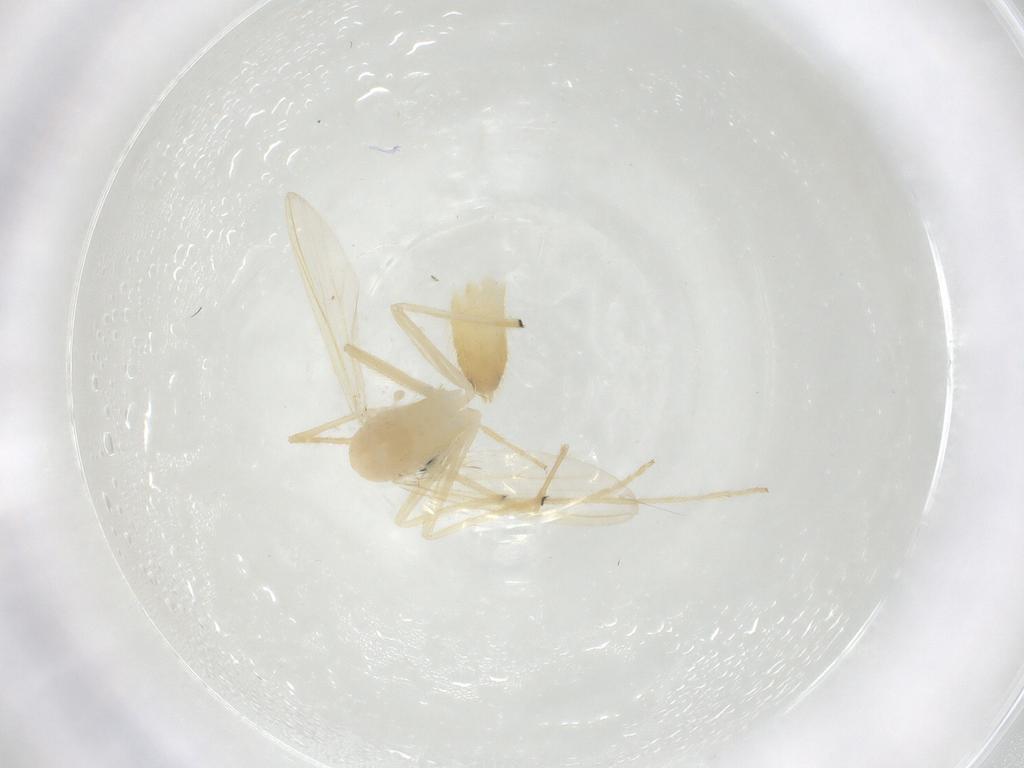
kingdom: Animalia
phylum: Arthropoda
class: Insecta
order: Diptera
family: Chironomidae
